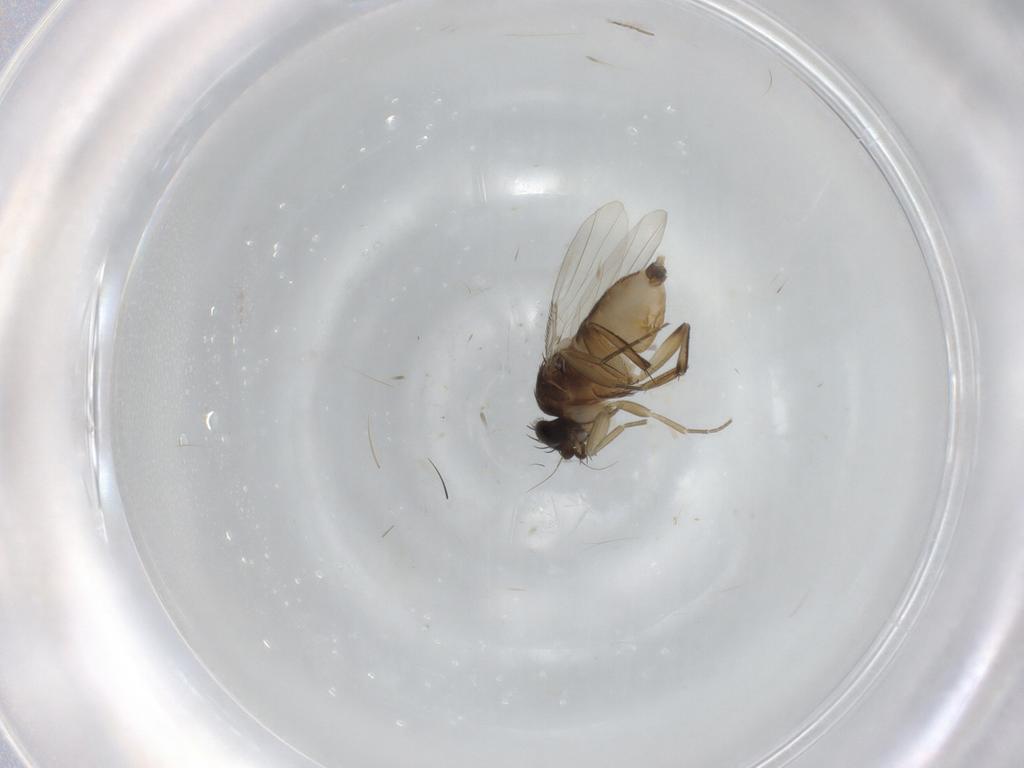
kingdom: Animalia
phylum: Arthropoda
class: Insecta
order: Diptera
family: Phoridae
